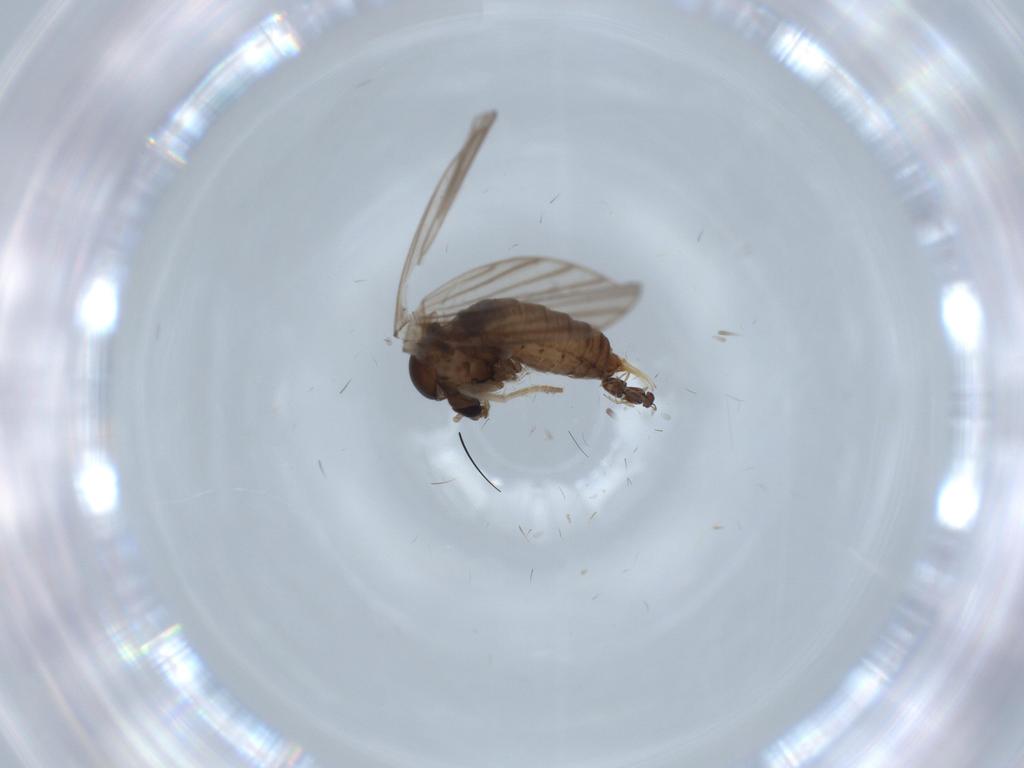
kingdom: Animalia
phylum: Arthropoda
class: Insecta
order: Diptera
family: Psychodidae
